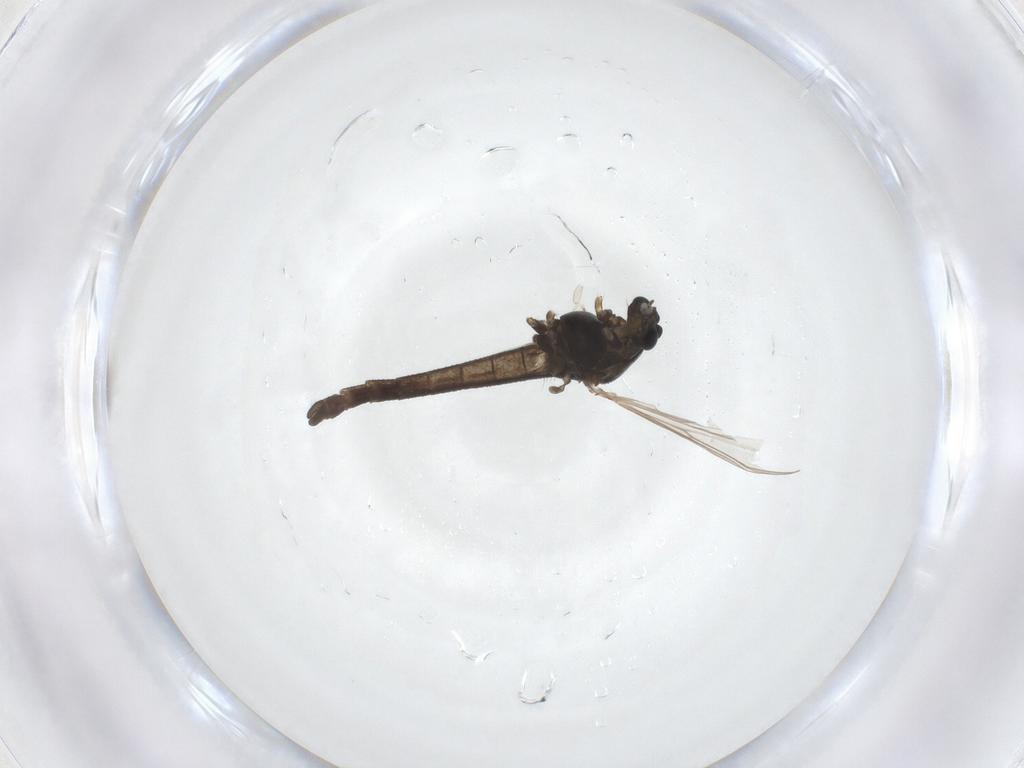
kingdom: Animalia
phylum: Arthropoda
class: Insecta
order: Diptera
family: Chironomidae
